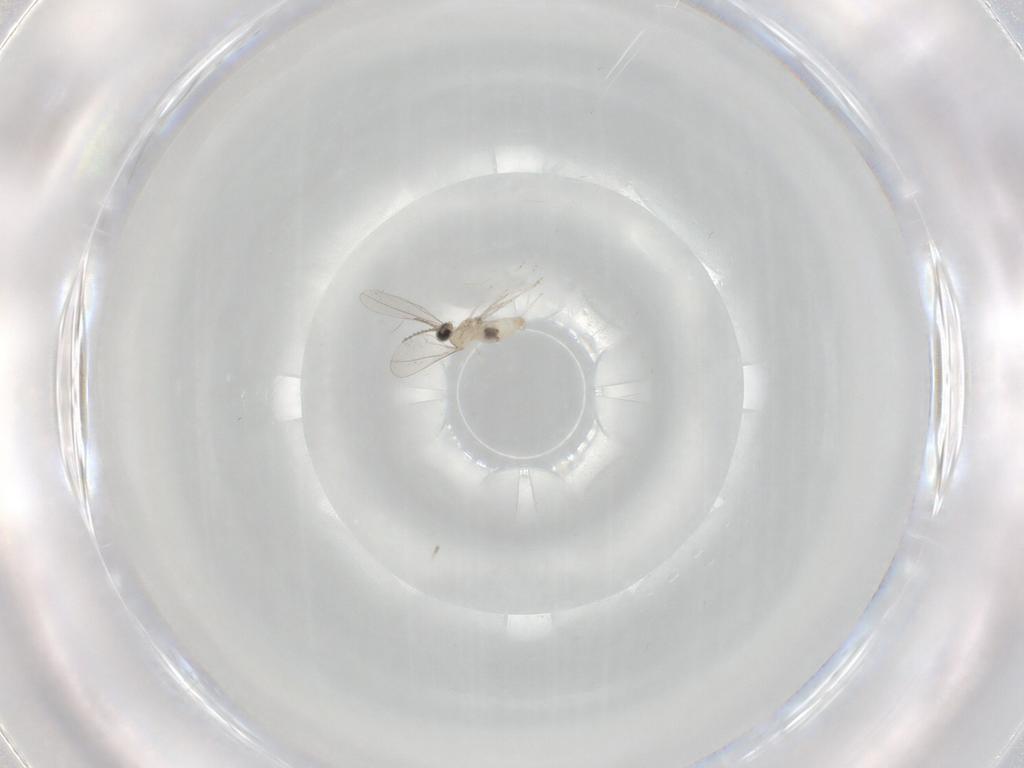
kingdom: Animalia
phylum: Arthropoda
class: Insecta
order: Diptera
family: Cecidomyiidae
